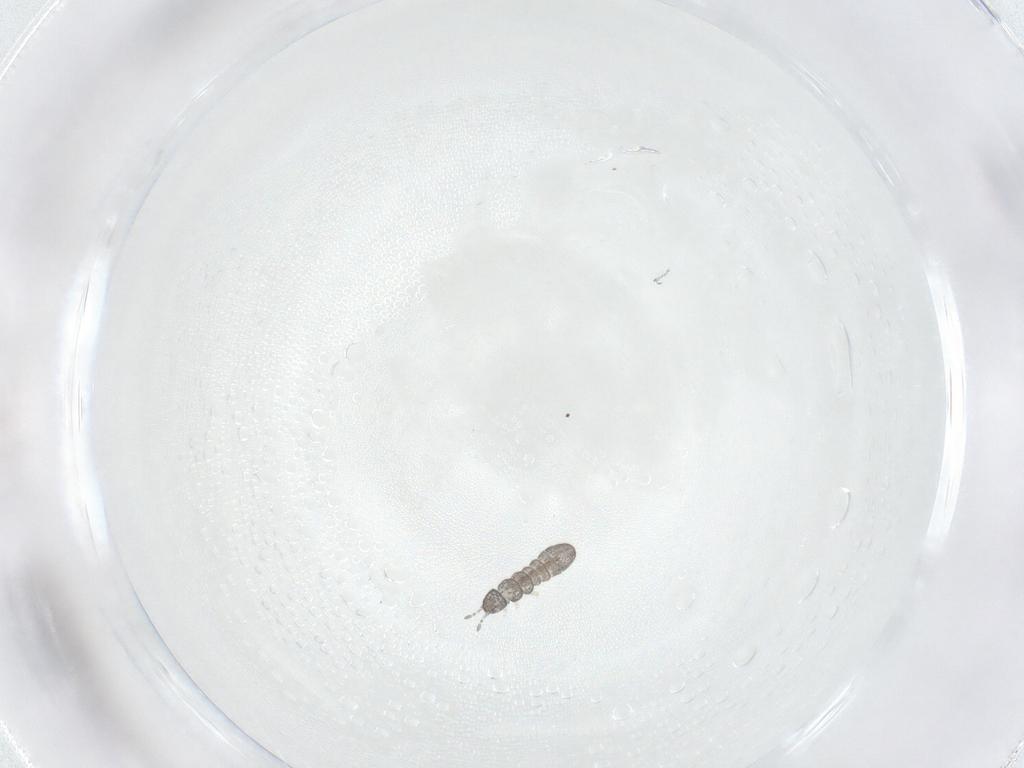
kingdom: Animalia
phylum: Arthropoda
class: Collembola
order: Entomobryomorpha
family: Isotomidae
